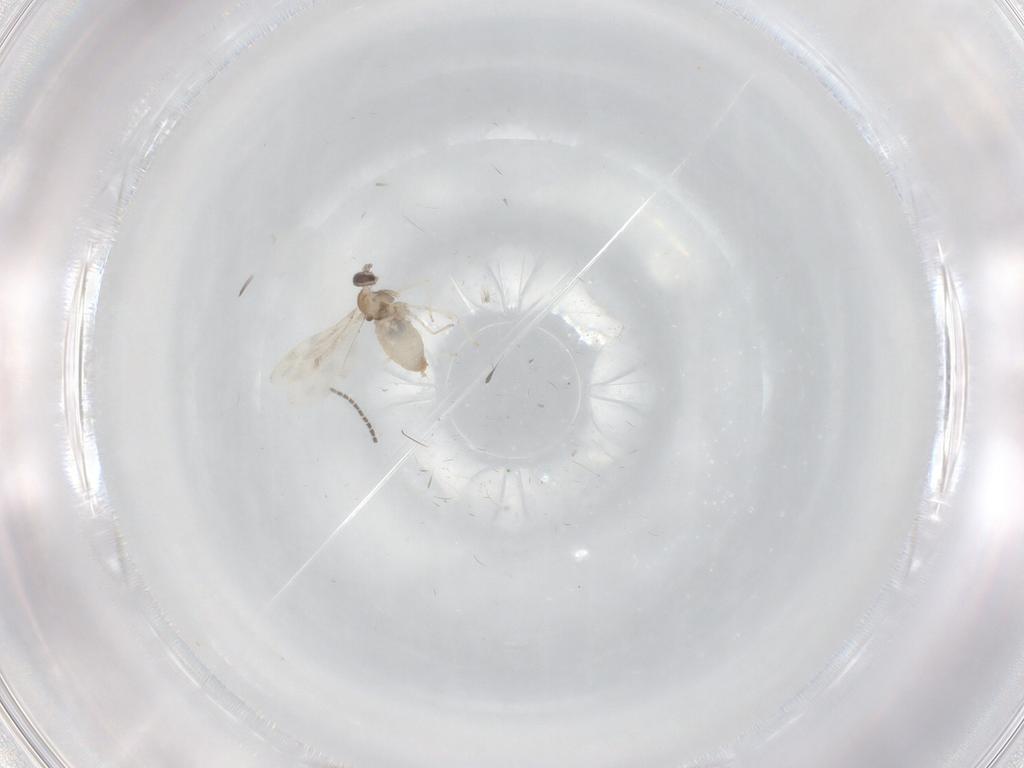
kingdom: Animalia
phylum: Arthropoda
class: Insecta
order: Diptera
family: Cecidomyiidae
